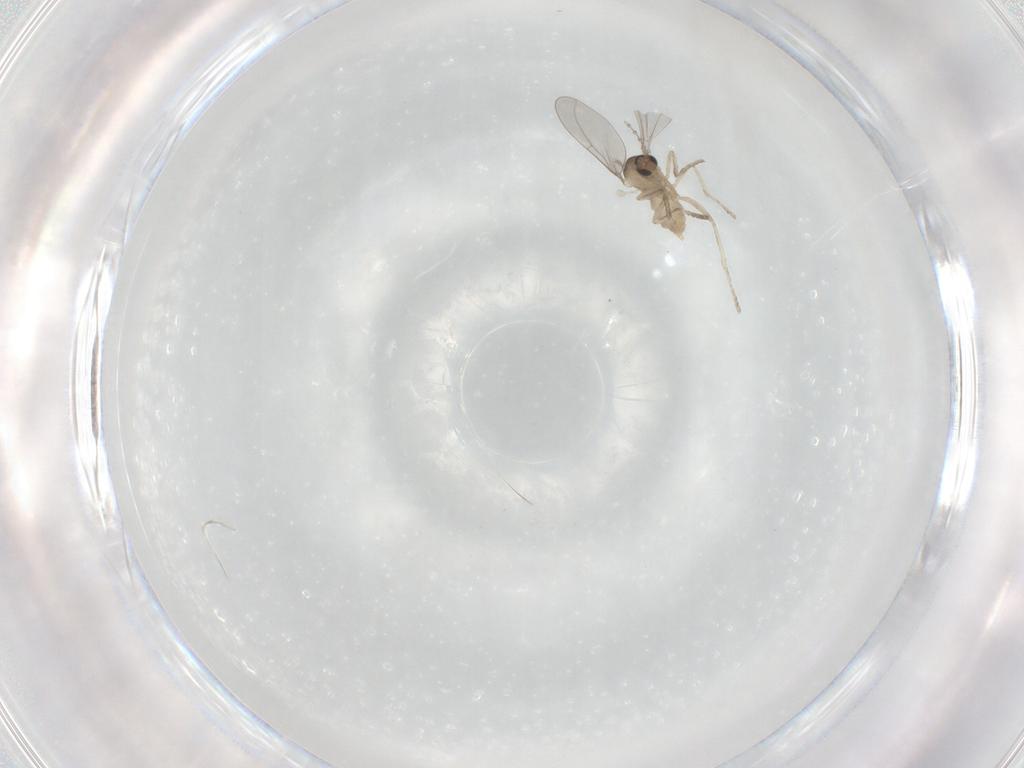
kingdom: Animalia
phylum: Arthropoda
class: Insecta
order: Diptera
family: Cecidomyiidae
